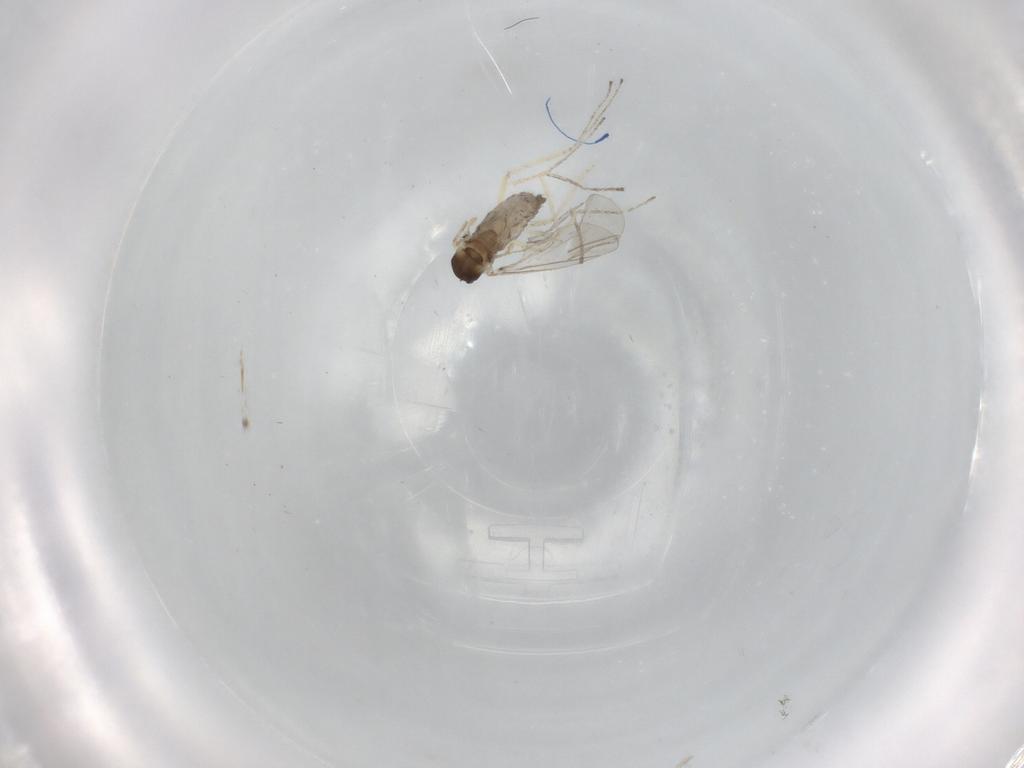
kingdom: Animalia
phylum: Arthropoda
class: Insecta
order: Diptera
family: Cecidomyiidae
